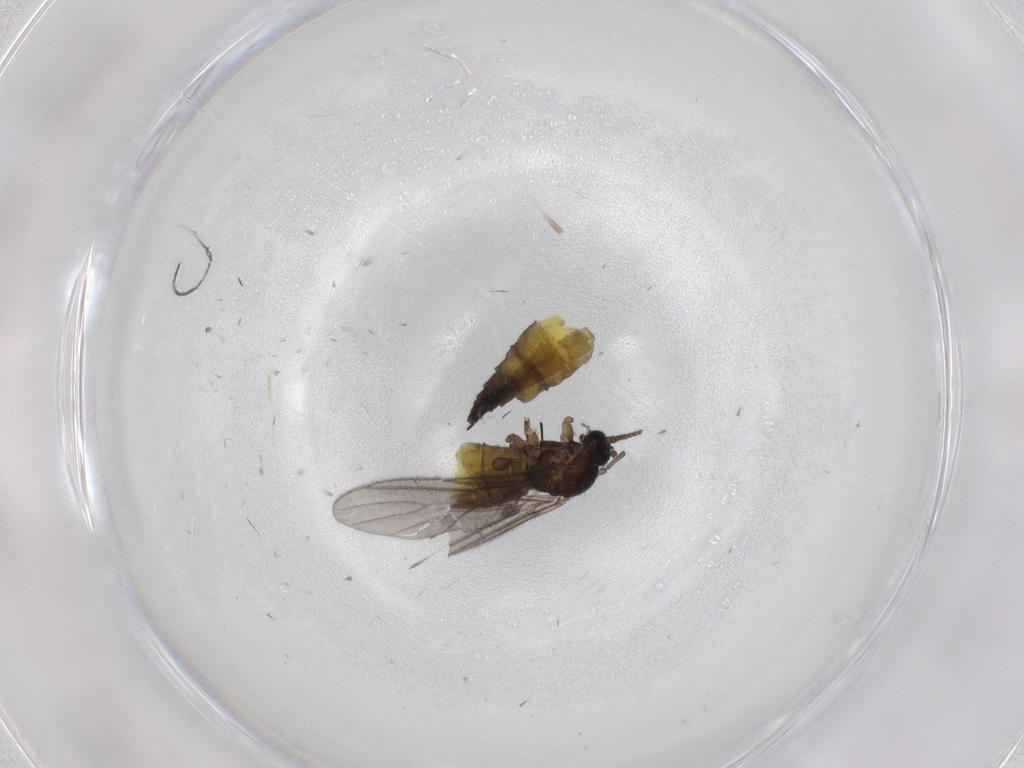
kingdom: Animalia
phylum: Arthropoda
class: Insecta
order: Diptera
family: Sciaridae
